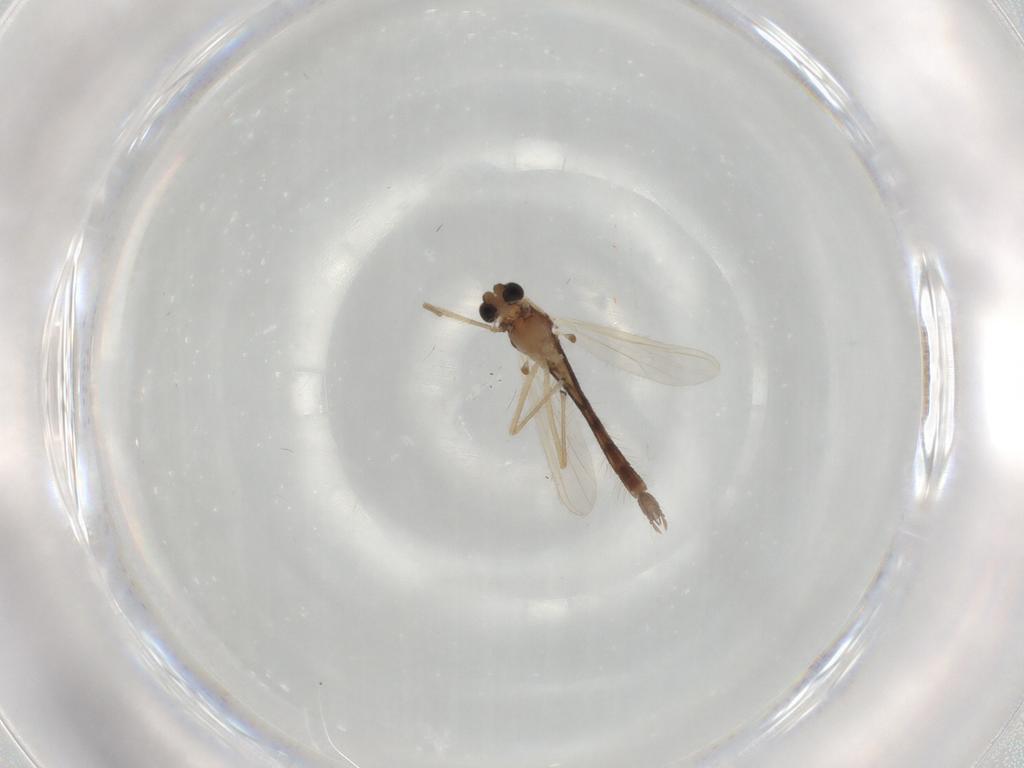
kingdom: Animalia
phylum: Arthropoda
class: Insecta
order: Diptera
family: Chironomidae
